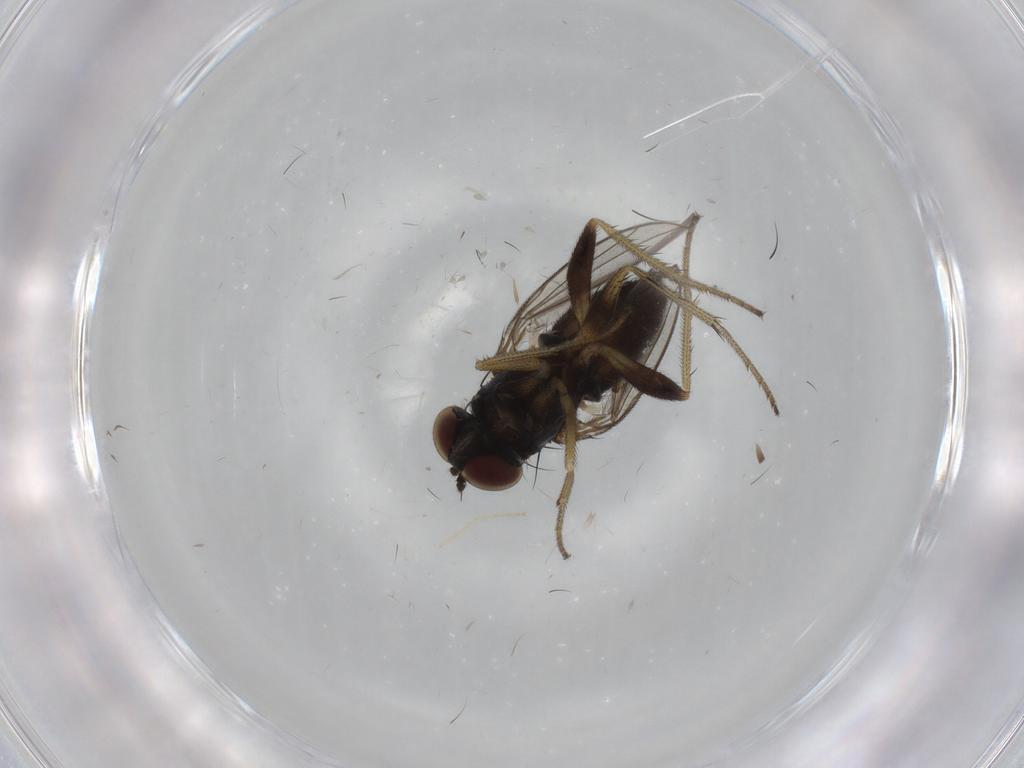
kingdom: Animalia
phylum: Arthropoda
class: Insecta
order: Diptera
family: Dolichopodidae
